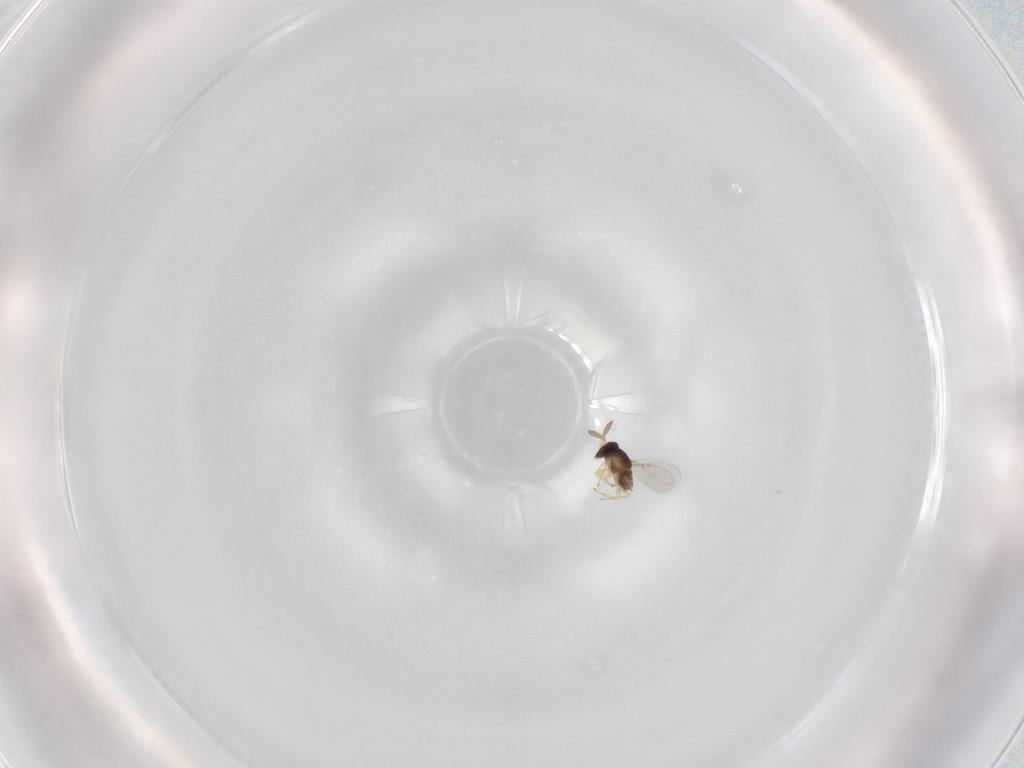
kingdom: Animalia
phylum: Arthropoda
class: Insecta
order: Hymenoptera
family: Encyrtidae
